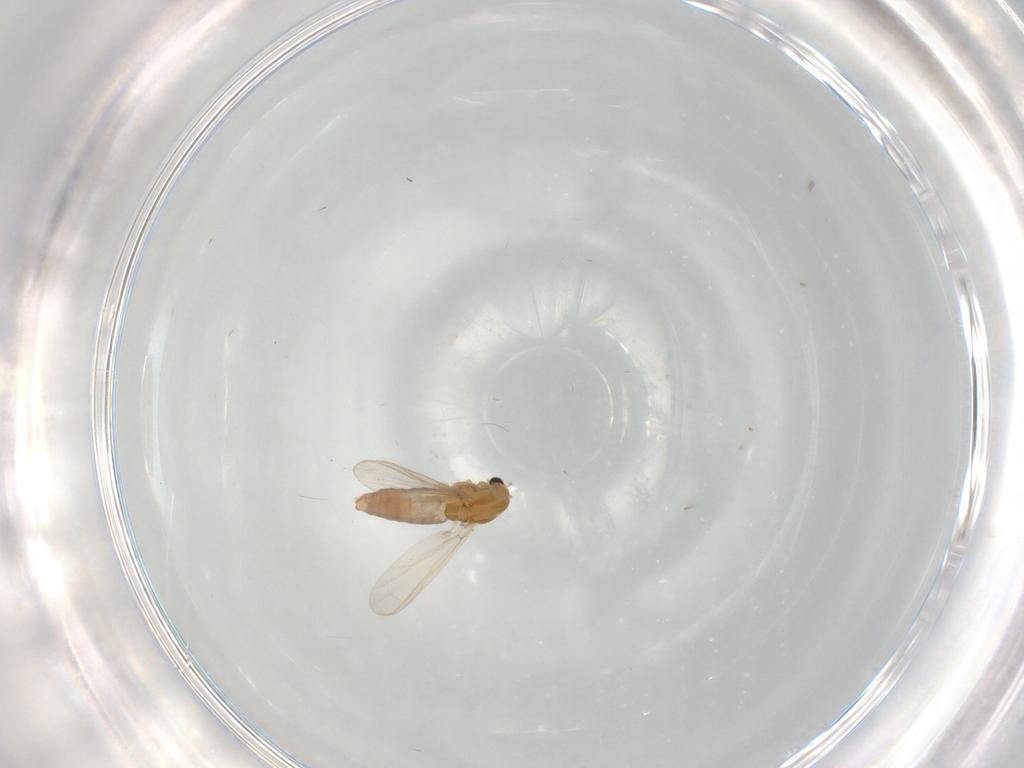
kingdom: Animalia
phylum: Arthropoda
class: Insecta
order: Diptera
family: Chironomidae
